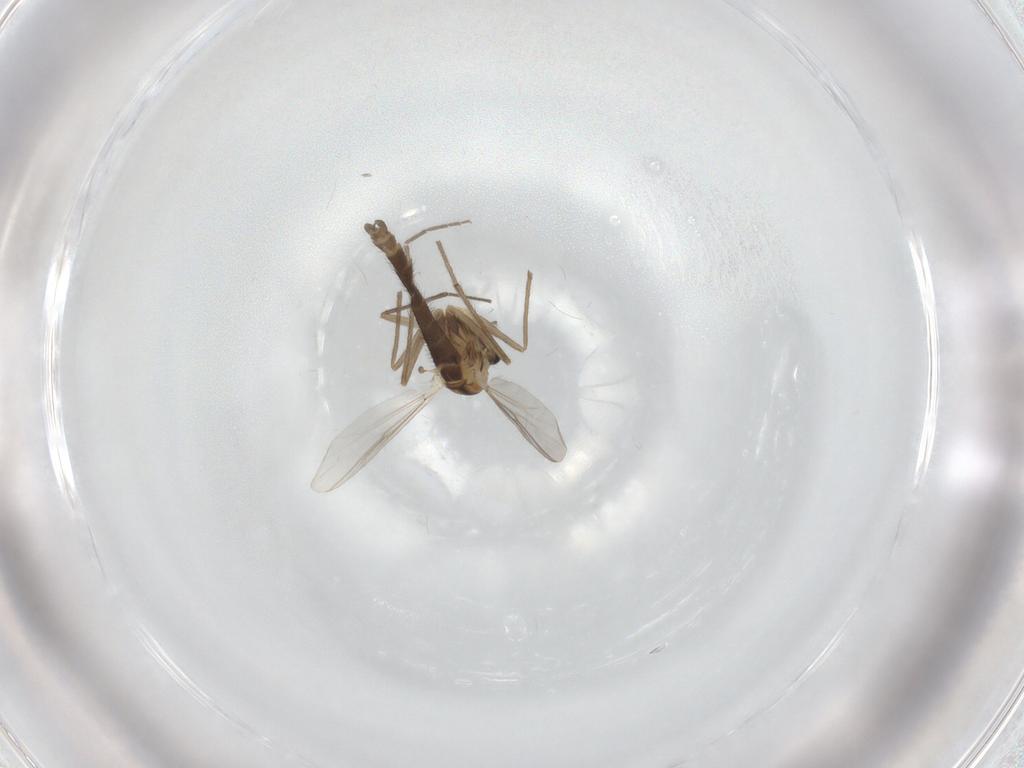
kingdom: Animalia
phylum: Arthropoda
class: Insecta
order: Diptera
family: Chironomidae
